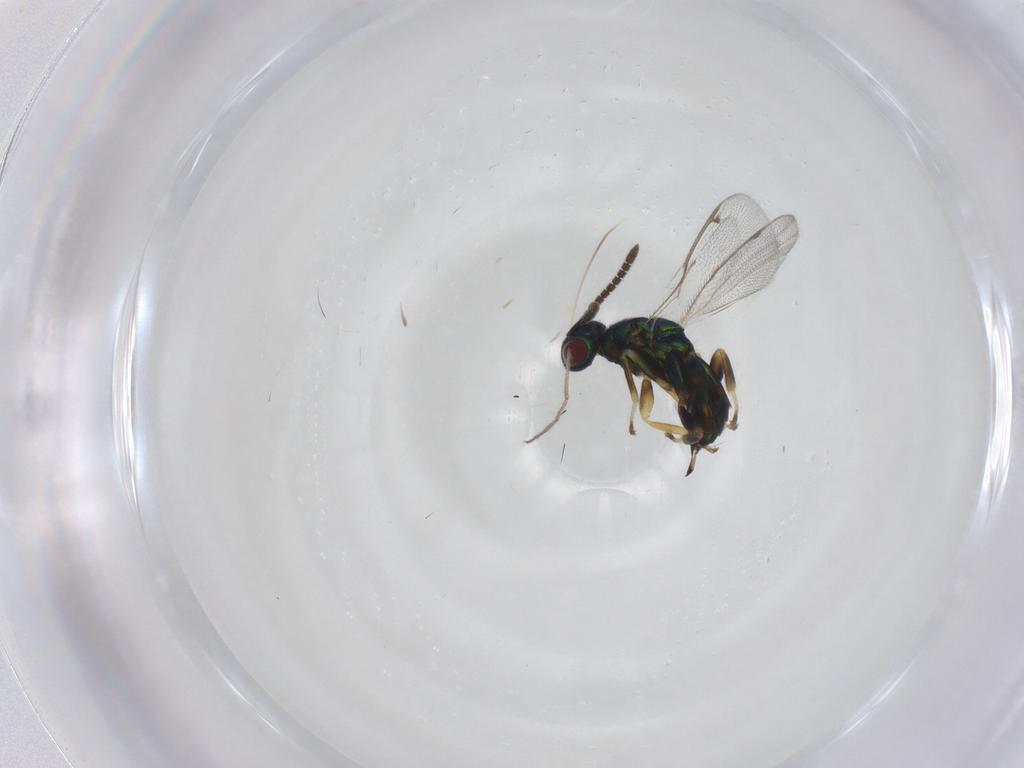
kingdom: Animalia
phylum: Arthropoda
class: Insecta
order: Hymenoptera
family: Torymidae
